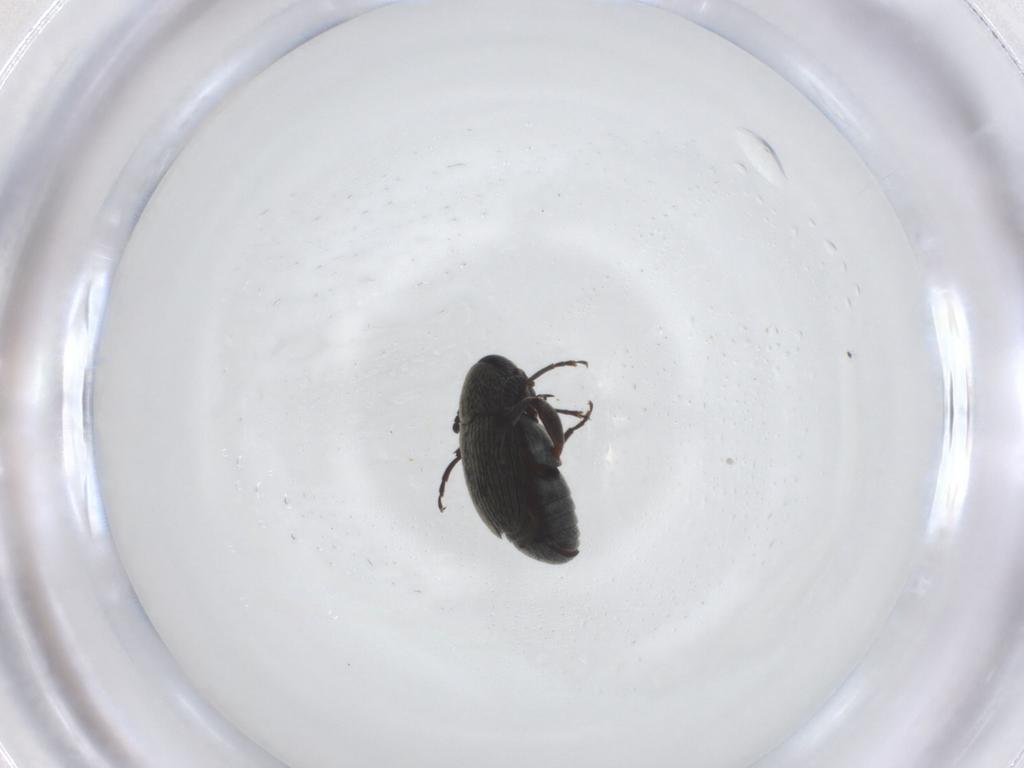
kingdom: Animalia
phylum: Arthropoda
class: Insecta
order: Coleoptera
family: Chrysomelidae
